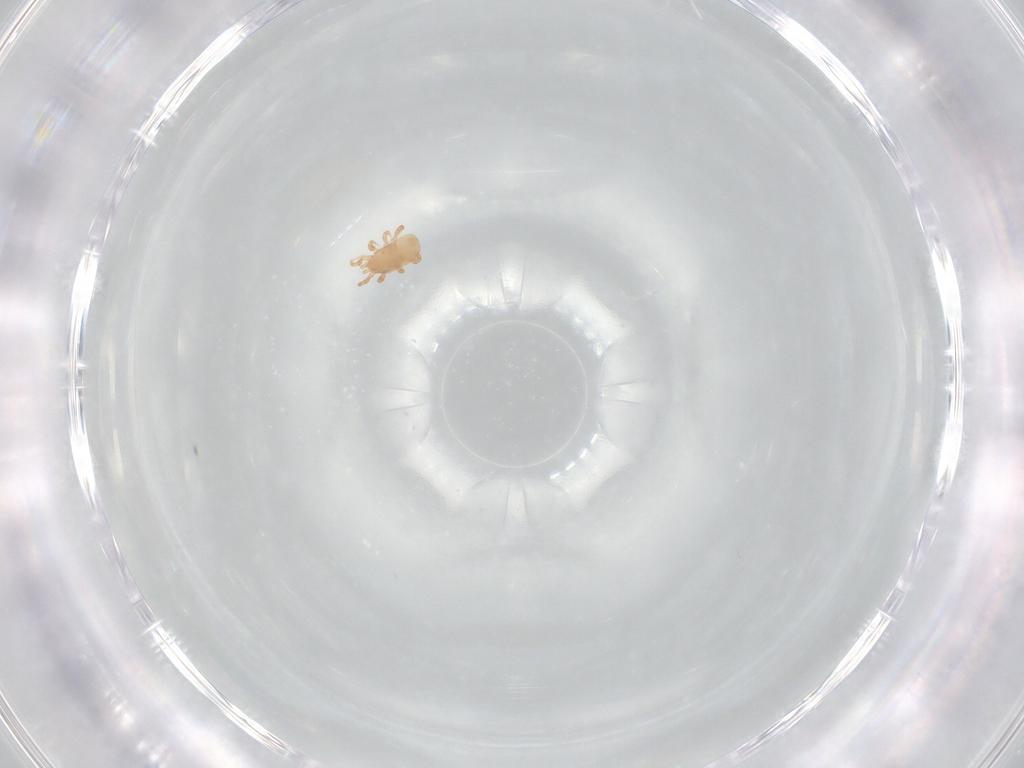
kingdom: Animalia
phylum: Arthropoda
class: Arachnida
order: Mesostigmata
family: Ascidae
